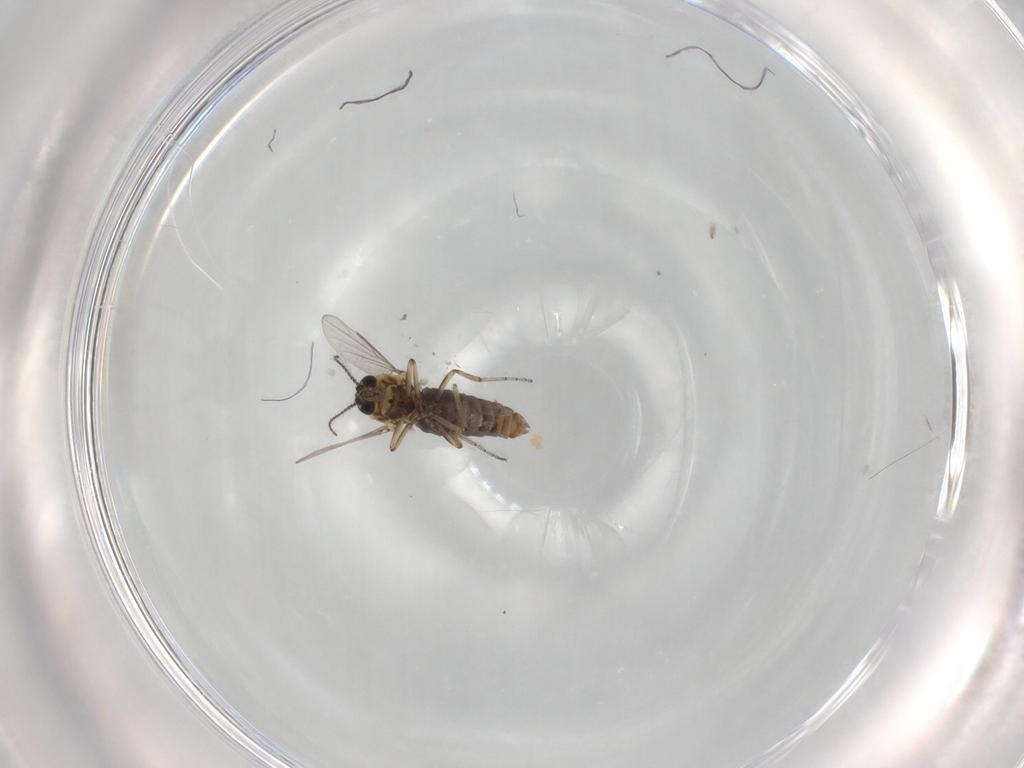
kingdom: Animalia
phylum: Arthropoda
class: Insecta
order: Diptera
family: Ceratopogonidae
